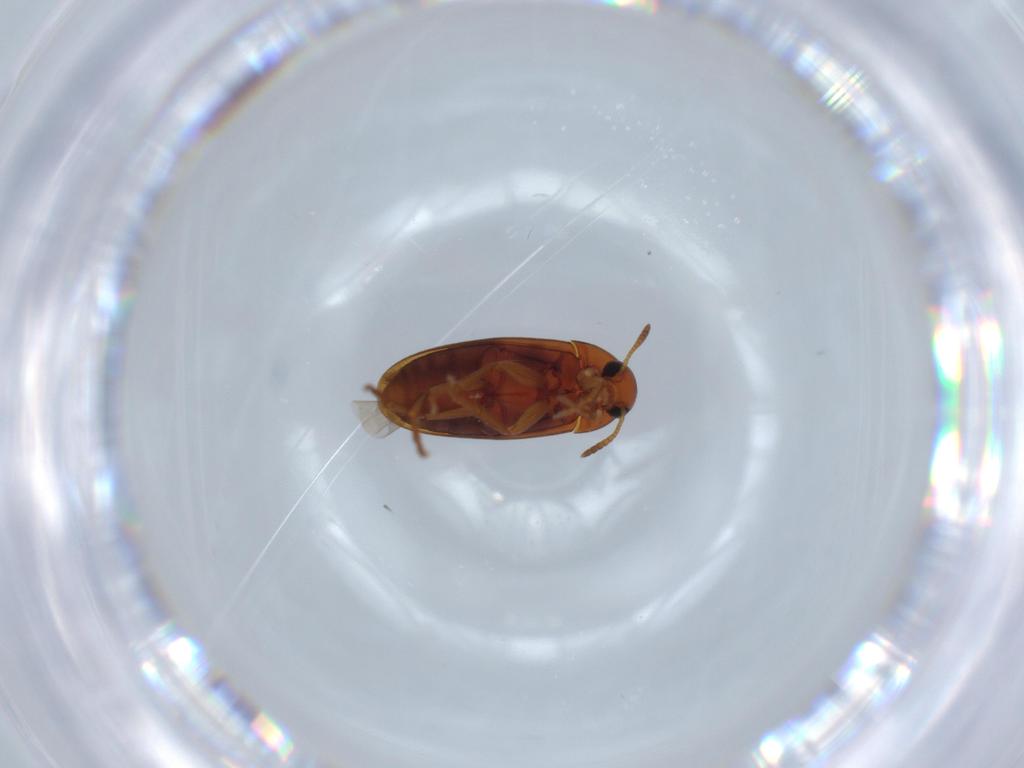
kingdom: Animalia
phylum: Arthropoda
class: Insecta
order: Coleoptera
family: Scraptiidae
